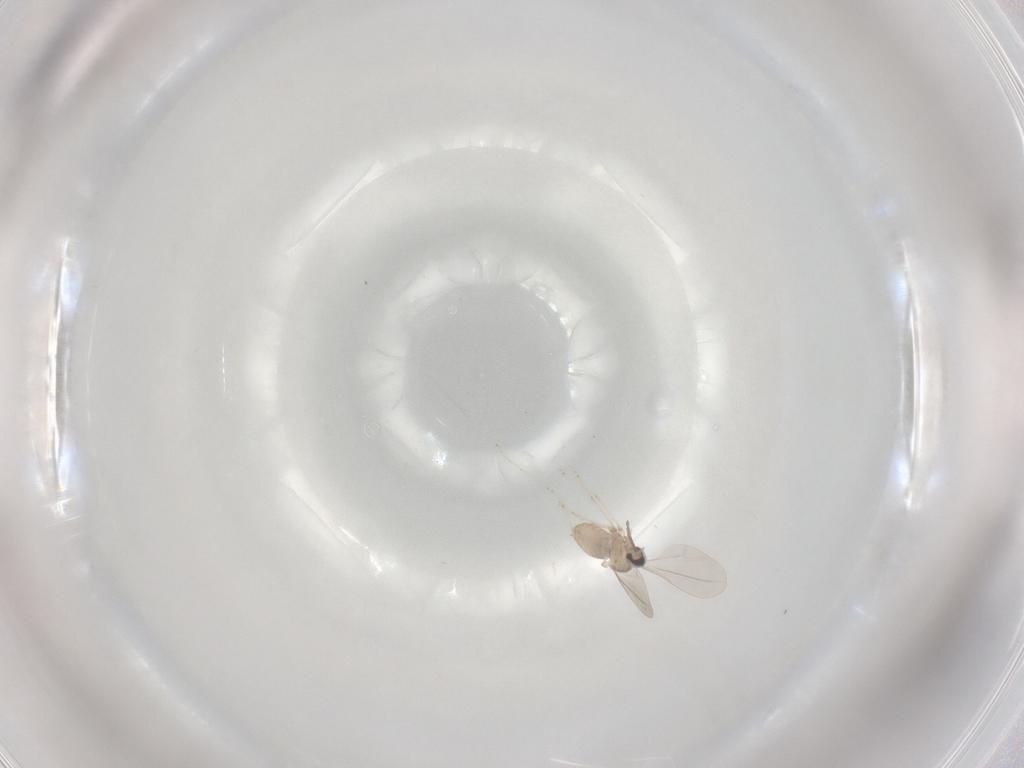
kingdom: Animalia
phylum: Arthropoda
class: Insecta
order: Diptera
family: Cecidomyiidae
